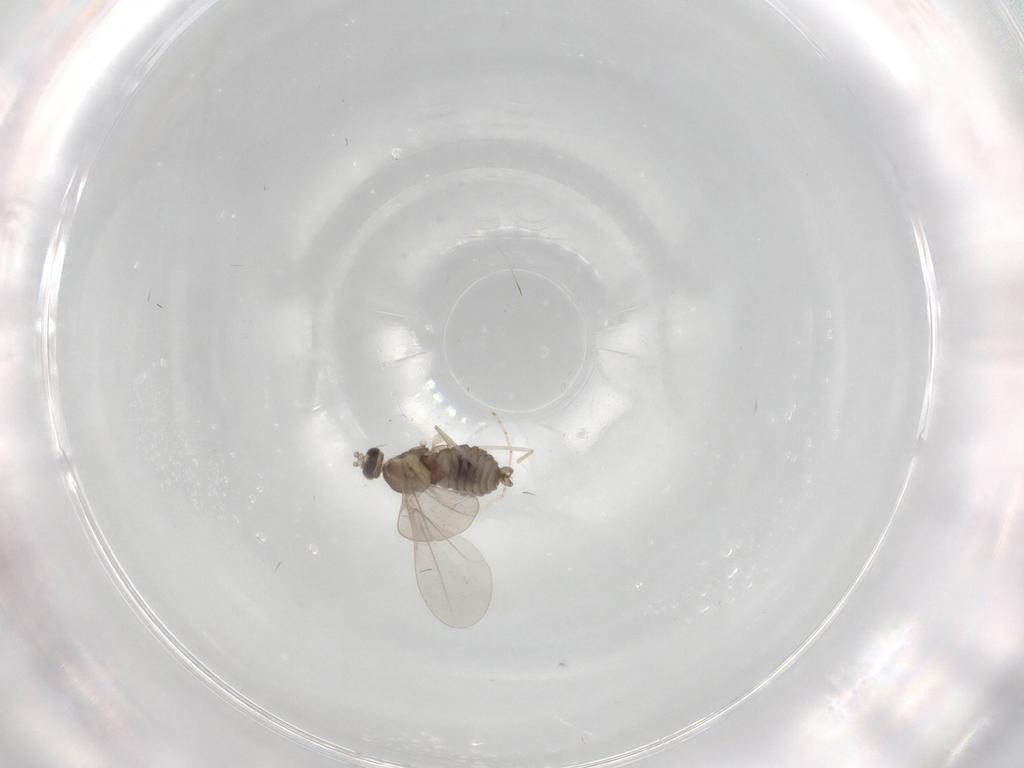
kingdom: Animalia
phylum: Arthropoda
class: Insecta
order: Diptera
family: Cecidomyiidae
